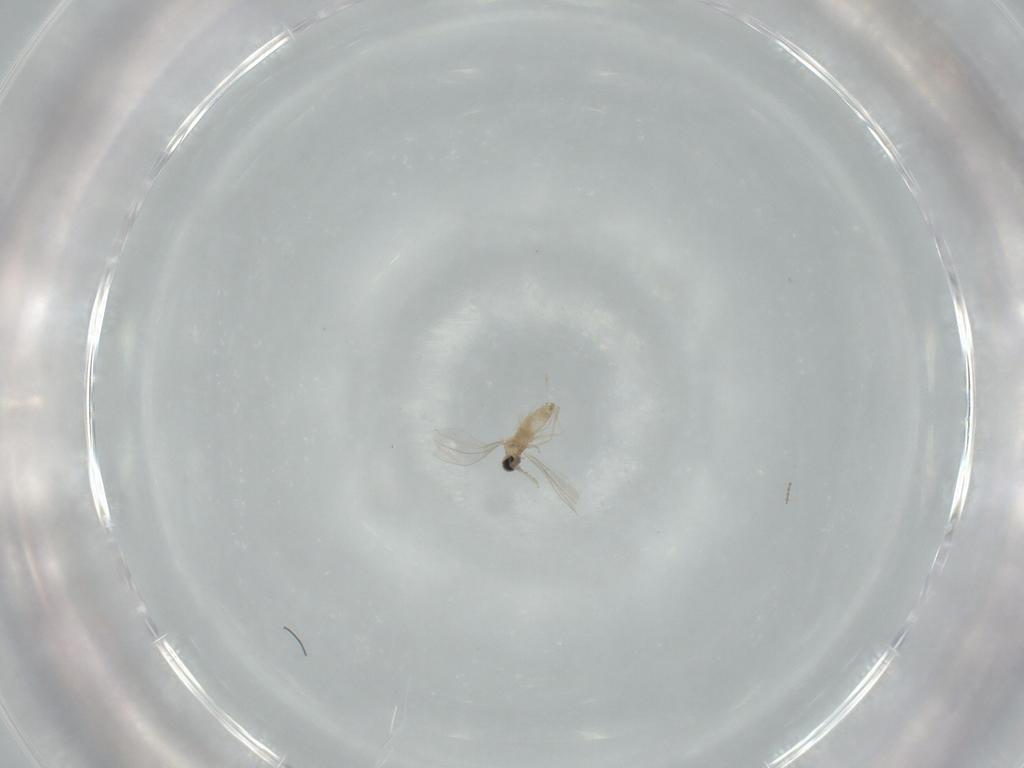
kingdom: Animalia
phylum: Arthropoda
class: Insecta
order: Diptera
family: Cecidomyiidae
